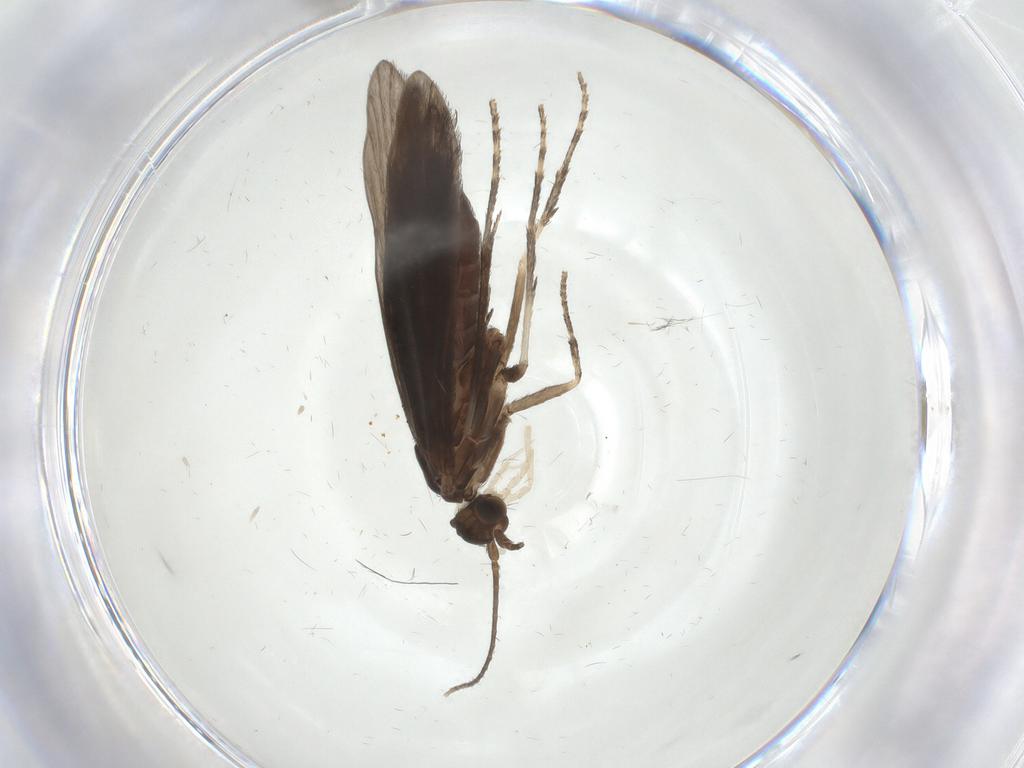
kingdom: Animalia
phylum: Arthropoda
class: Insecta
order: Trichoptera
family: Xiphocentronidae
